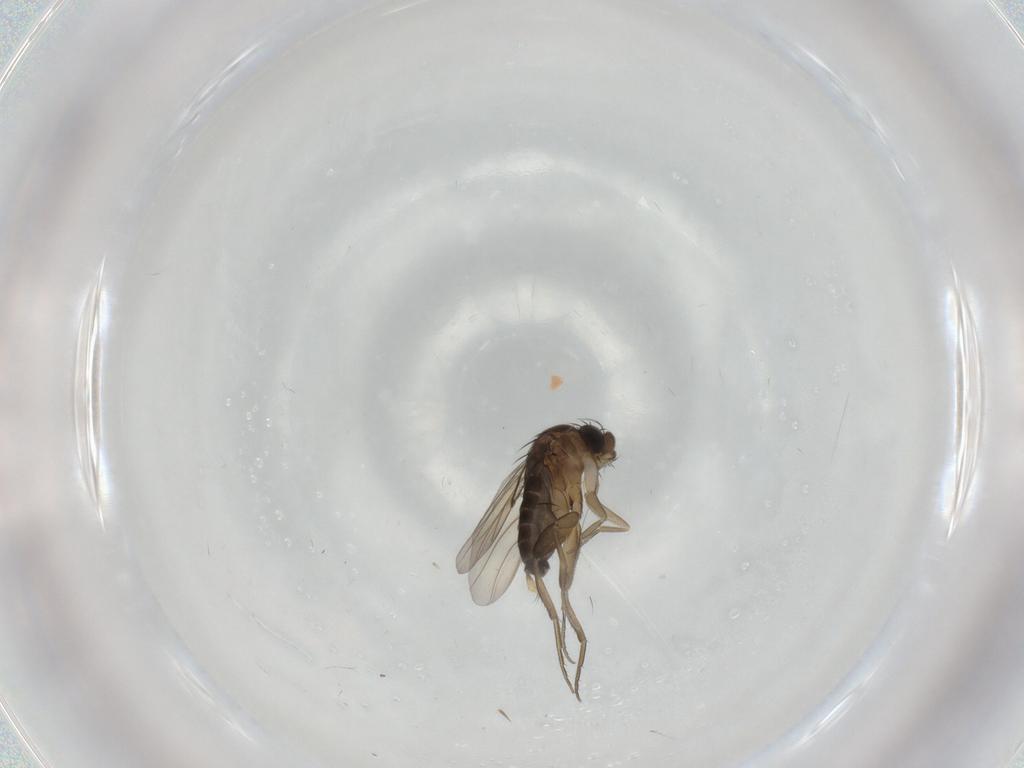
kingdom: Animalia
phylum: Arthropoda
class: Insecta
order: Diptera
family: Phoridae
